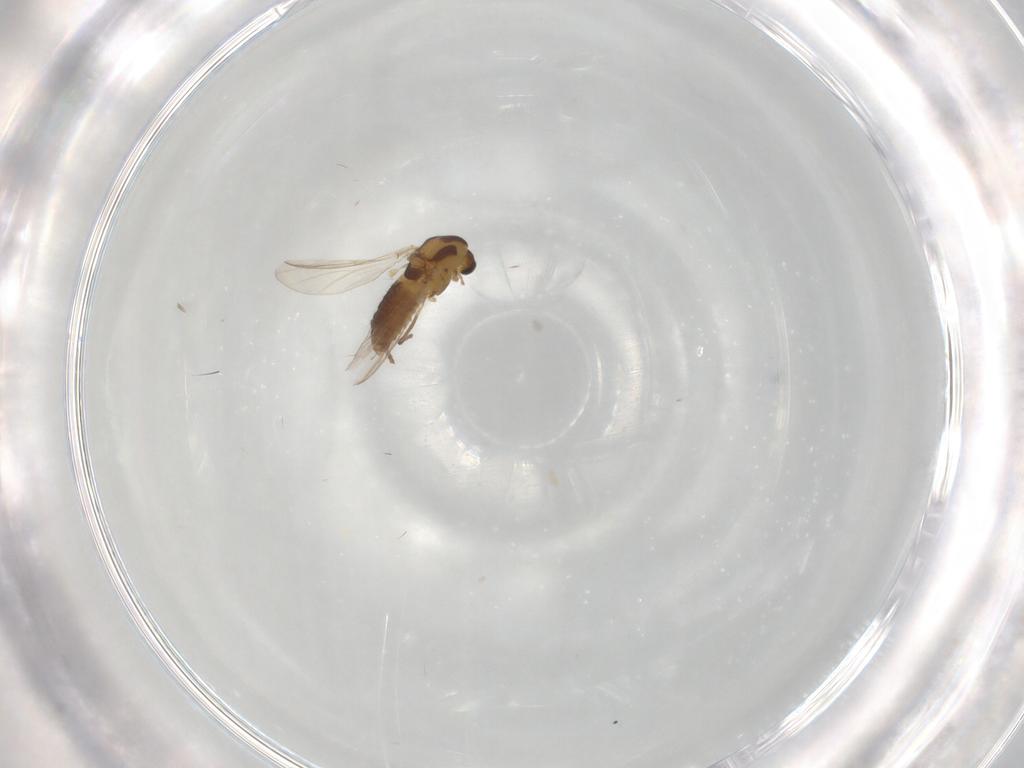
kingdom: Animalia
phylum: Arthropoda
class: Insecta
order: Diptera
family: Chironomidae
